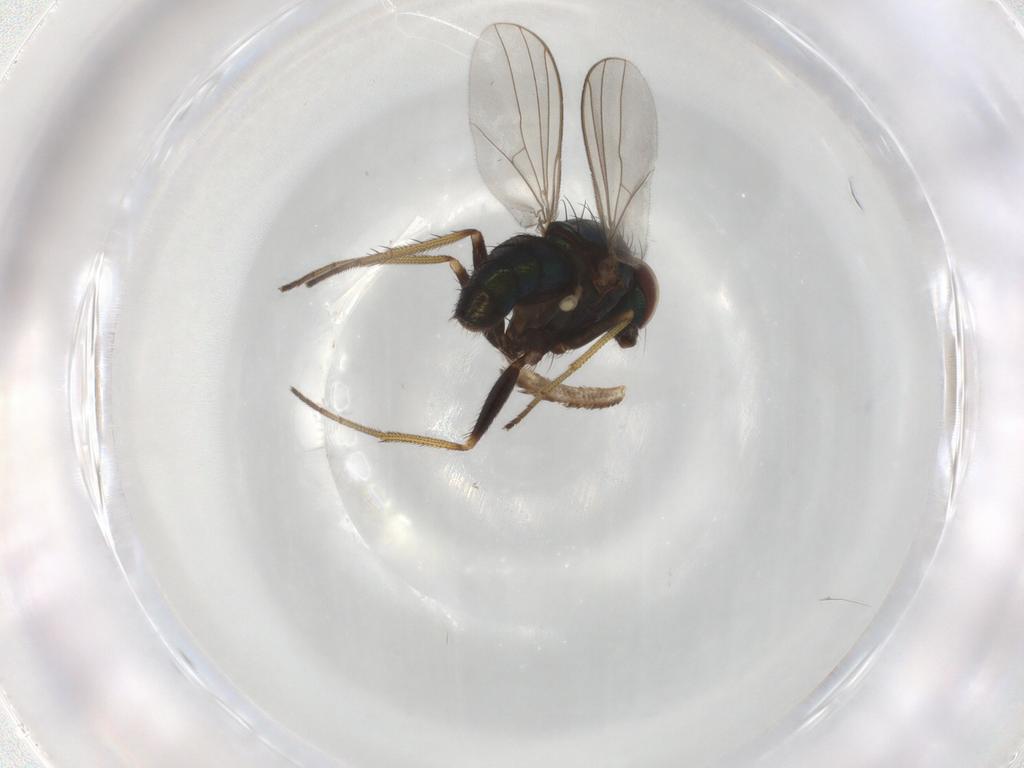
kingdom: Animalia
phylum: Arthropoda
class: Insecta
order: Diptera
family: Dolichopodidae
